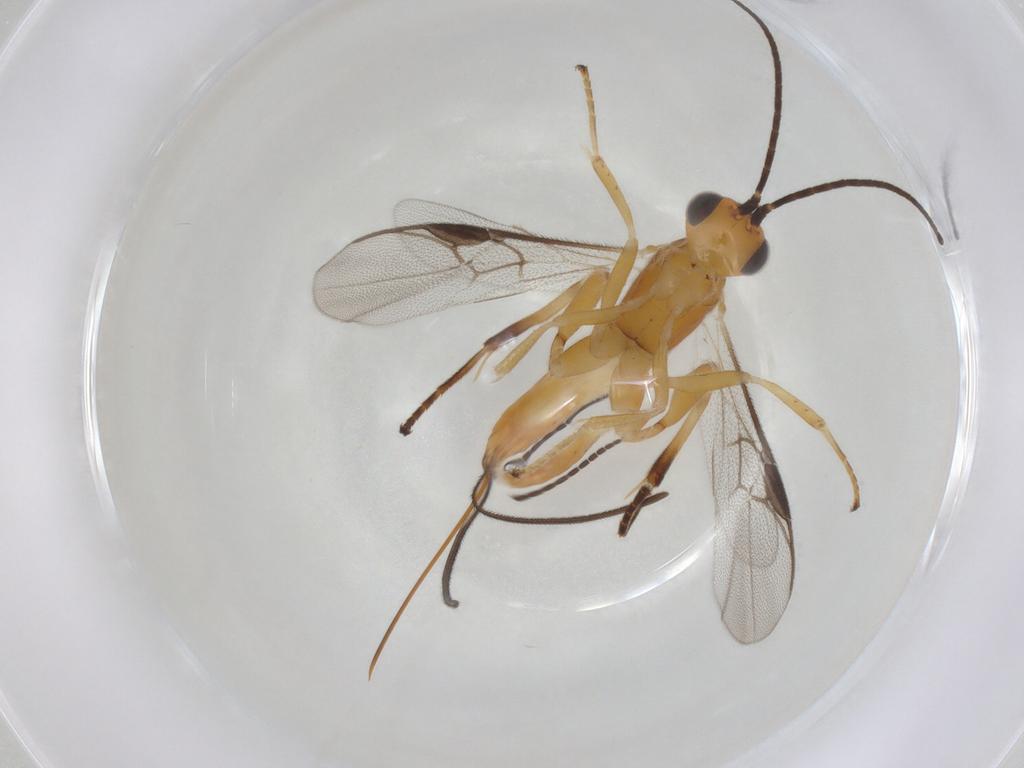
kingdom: Animalia
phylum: Arthropoda
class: Insecta
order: Hymenoptera
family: Braconidae
